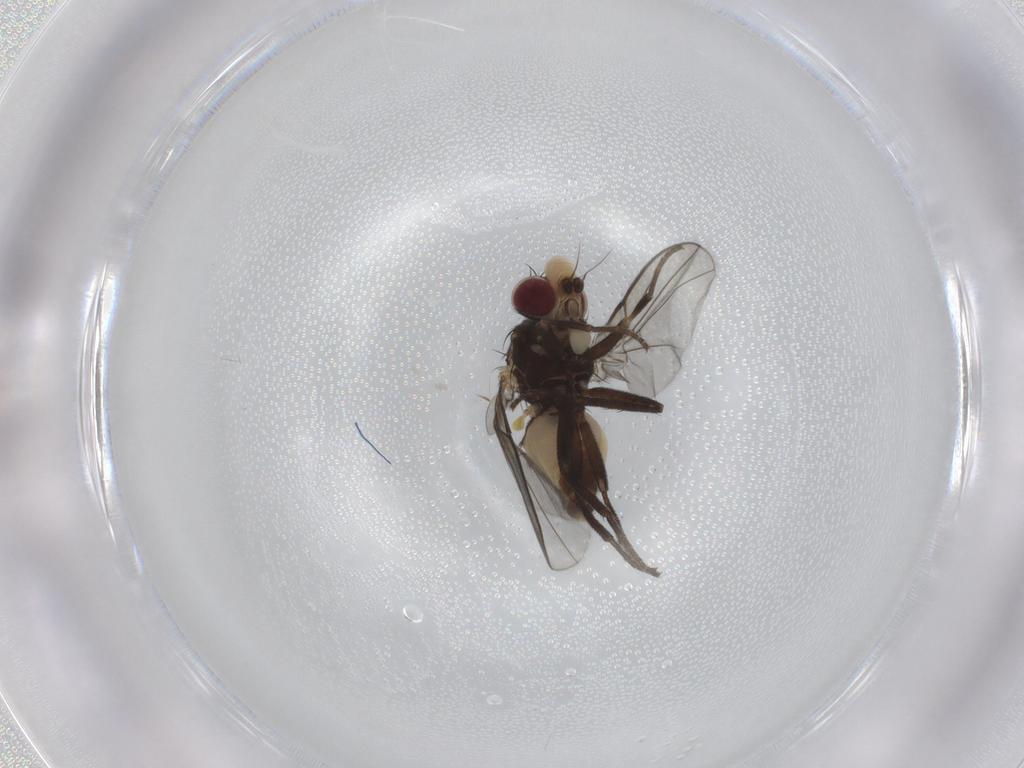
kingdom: Animalia
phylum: Arthropoda
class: Insecta
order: Diptera
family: Agromyzidae
